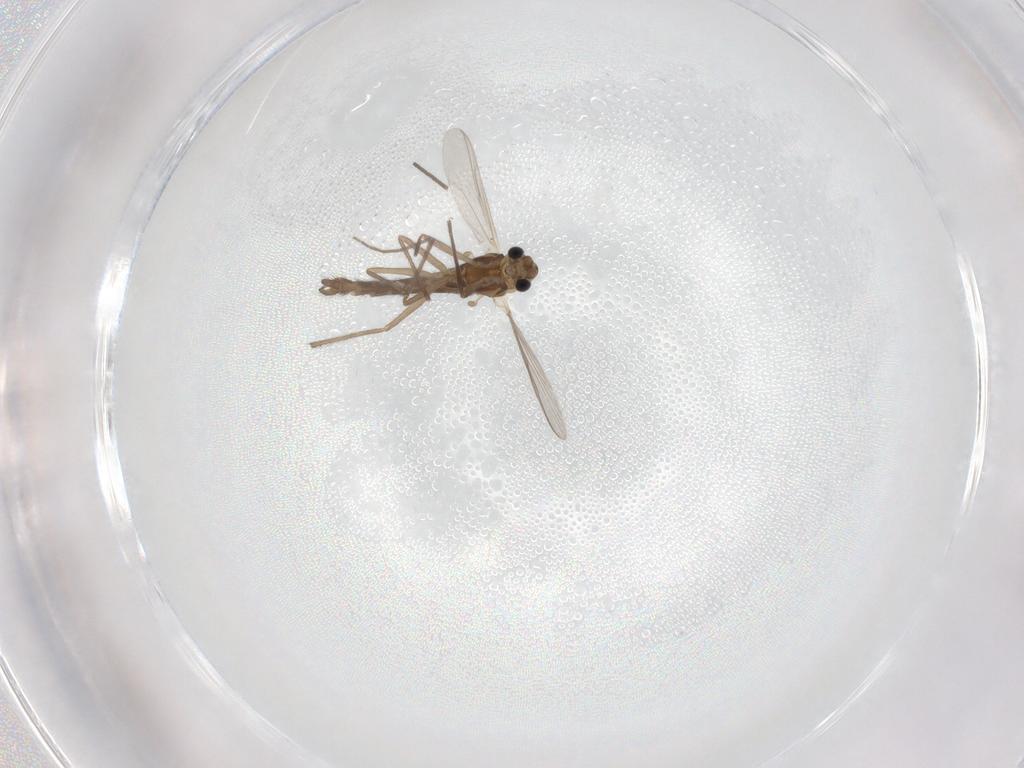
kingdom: Animalia
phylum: Arthropoda
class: Insecta
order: Diptera
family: Chironomidae
